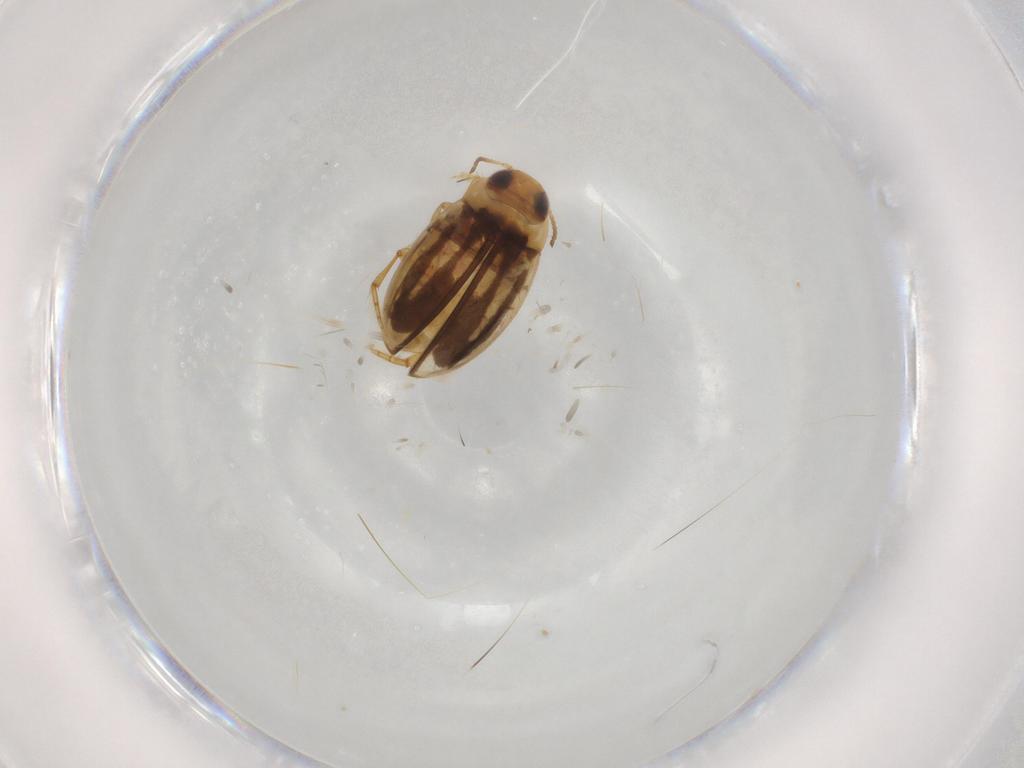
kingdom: Animalia
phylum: Arthropoda
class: Insecta
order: Coleoptera
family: Dytiscidae
